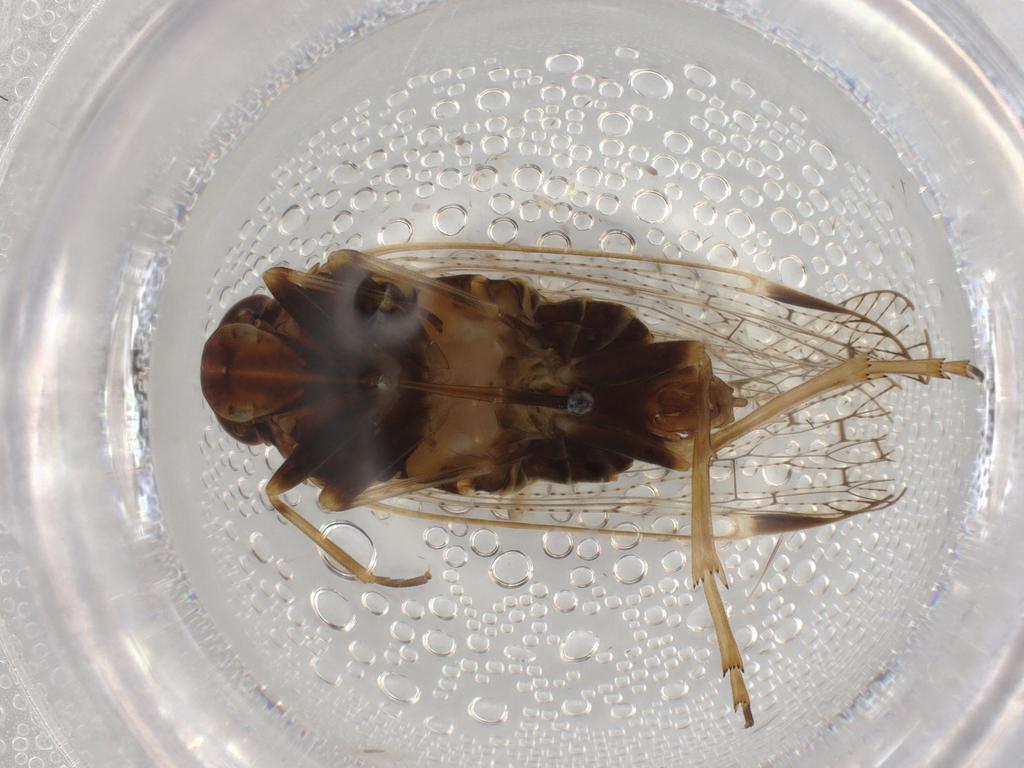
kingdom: Animalia
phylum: Arthropoda
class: Insecta
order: Hemiptera
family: Cixiidae
